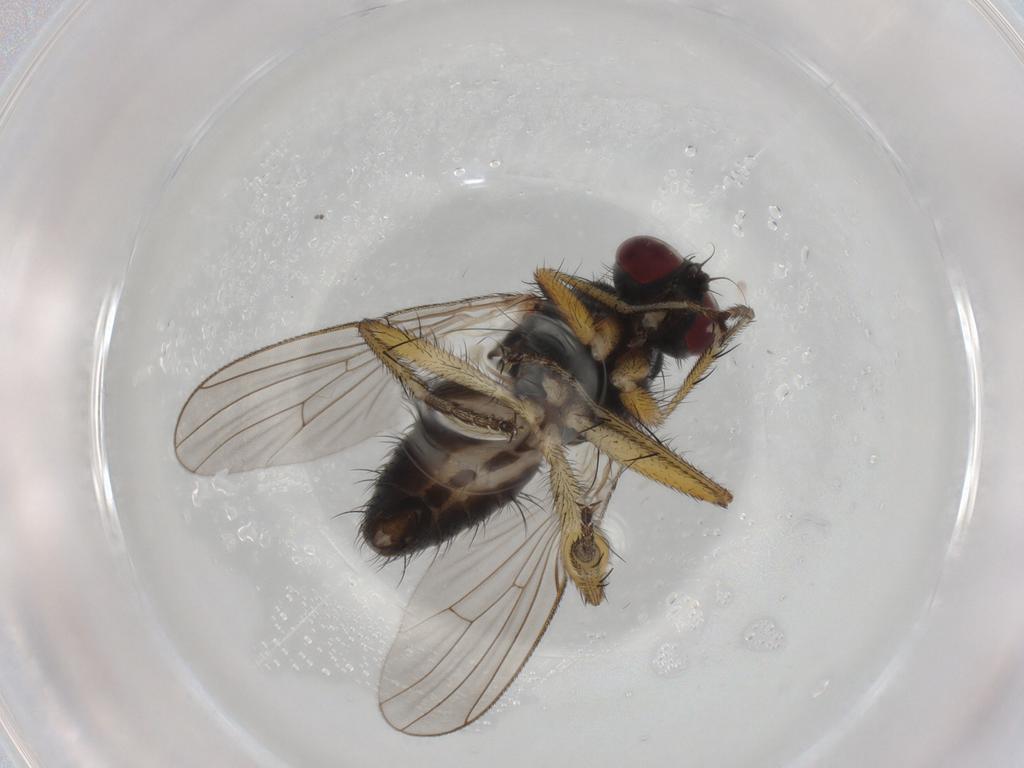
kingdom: Animalia
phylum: Arthropoda
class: Insecta
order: Diptera
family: Muscidae
